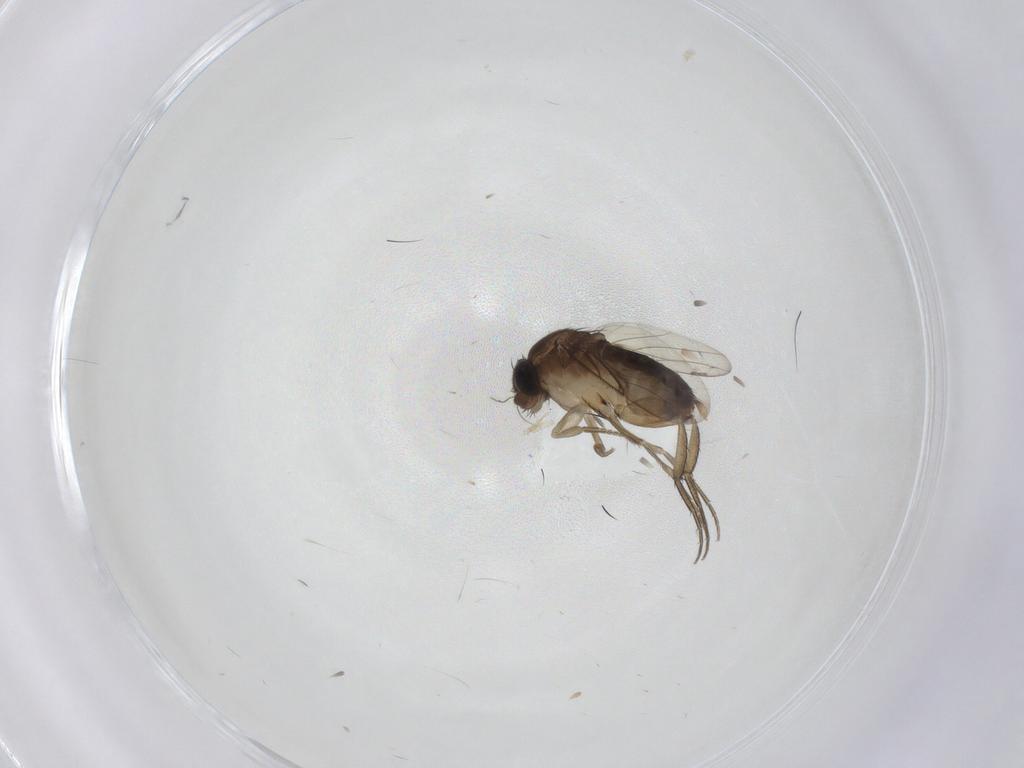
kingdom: Animalia
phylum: Arthropoda
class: Insecta
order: Diptera
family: Phoridae
